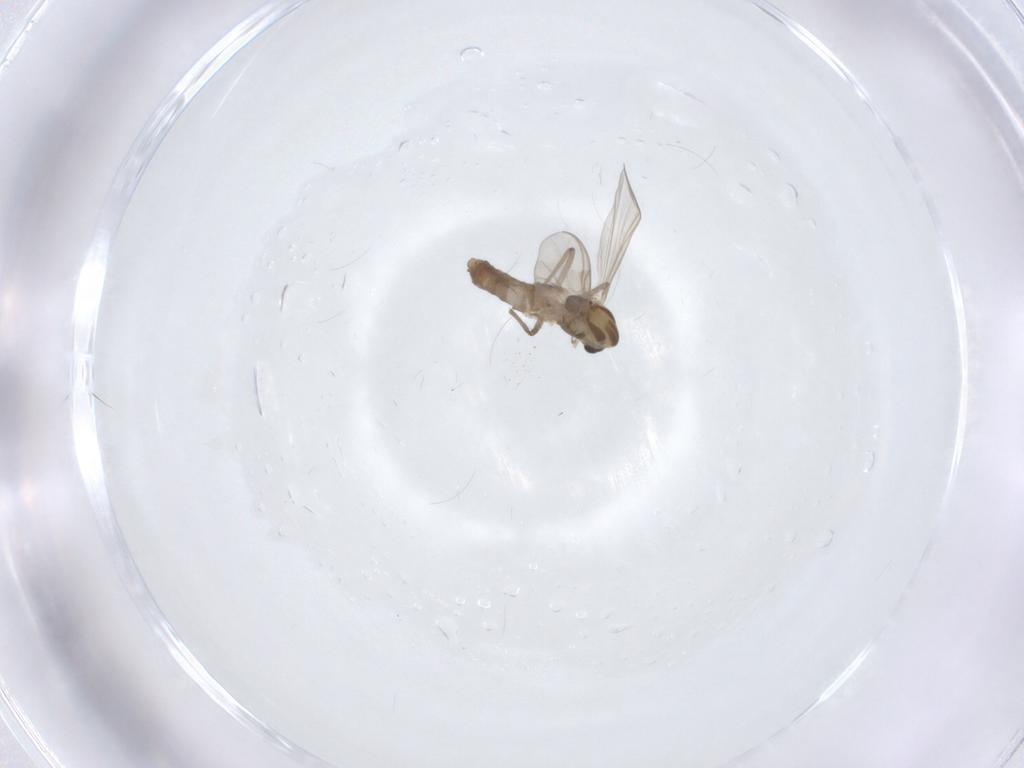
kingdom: Animalia
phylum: Arthropoda
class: Insecta
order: Diptera
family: Chironomidae
